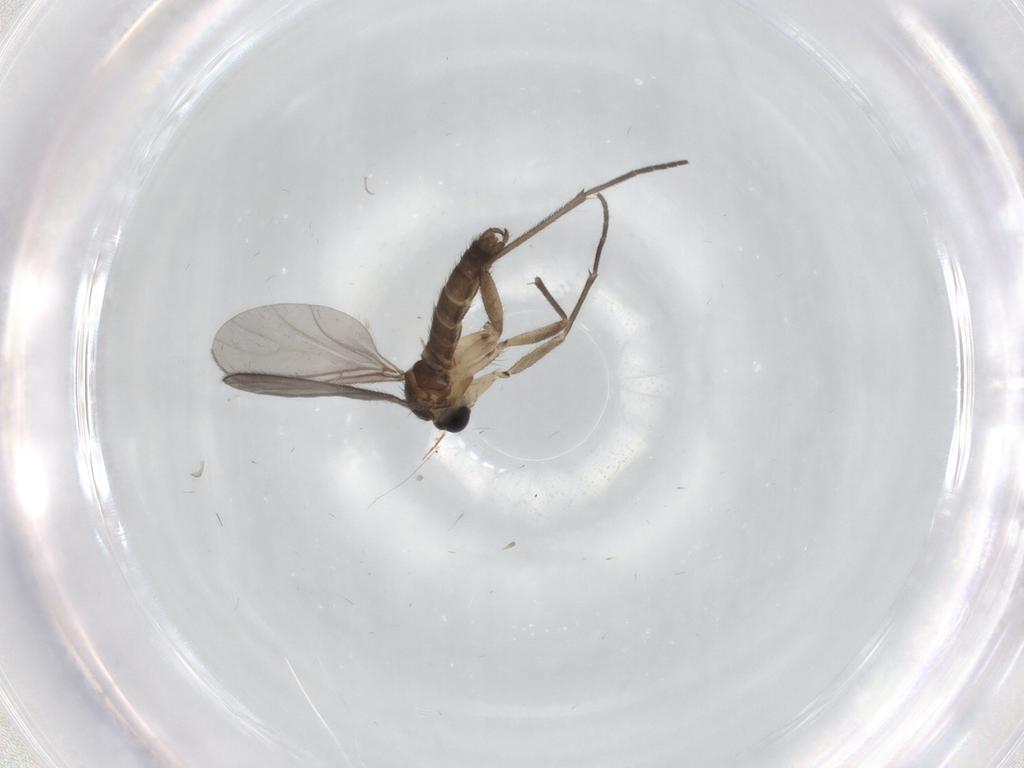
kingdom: Animalia
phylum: Arthropoda
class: Insecta
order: Diptera
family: Sciaridae
